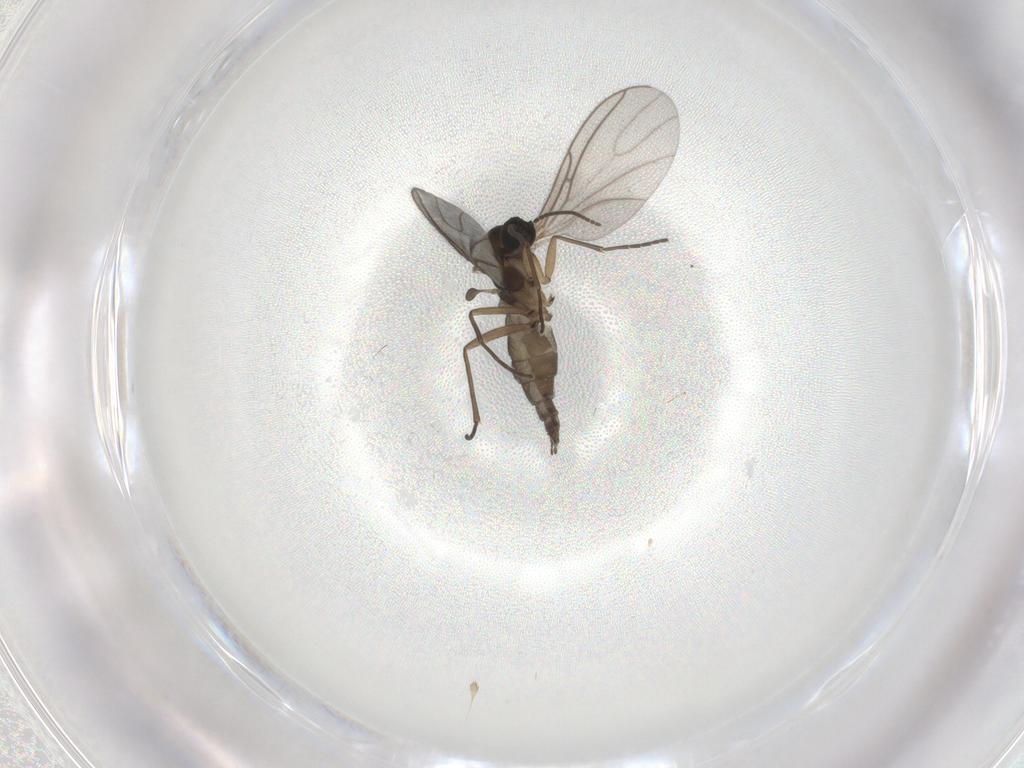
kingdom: Animalia
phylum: Arthropoda
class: Insecta
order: Diptera
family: Sciaridae
